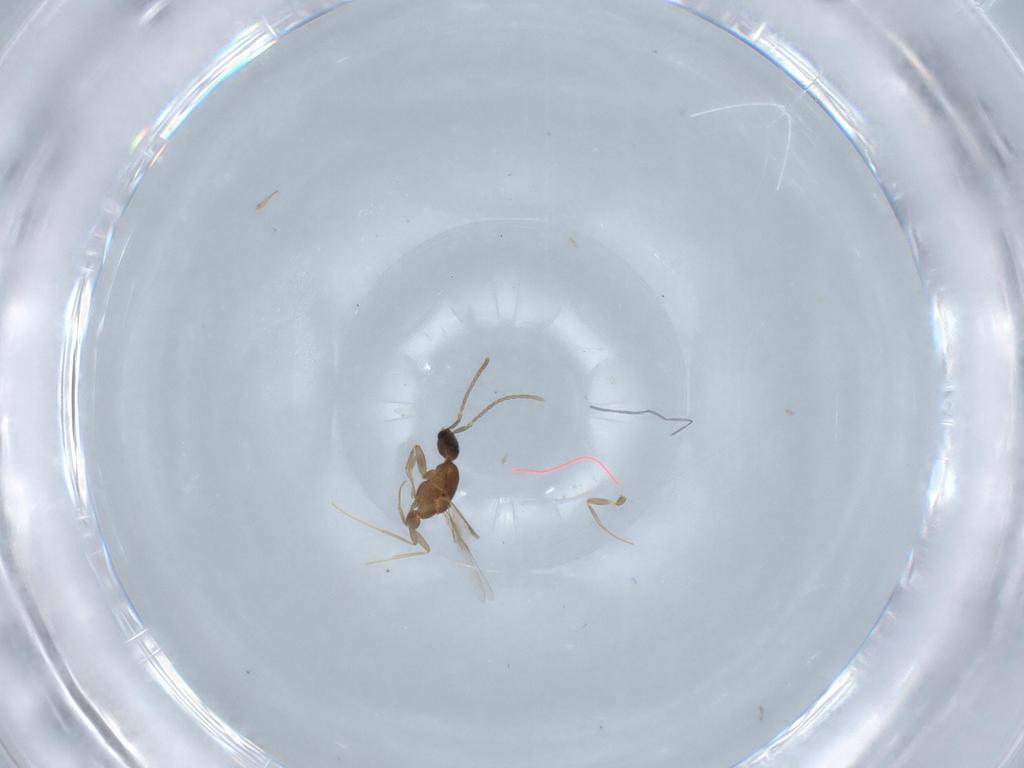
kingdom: Animalia
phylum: Arthropoda
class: Insecta
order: Hymenoptera
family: Formicidae
